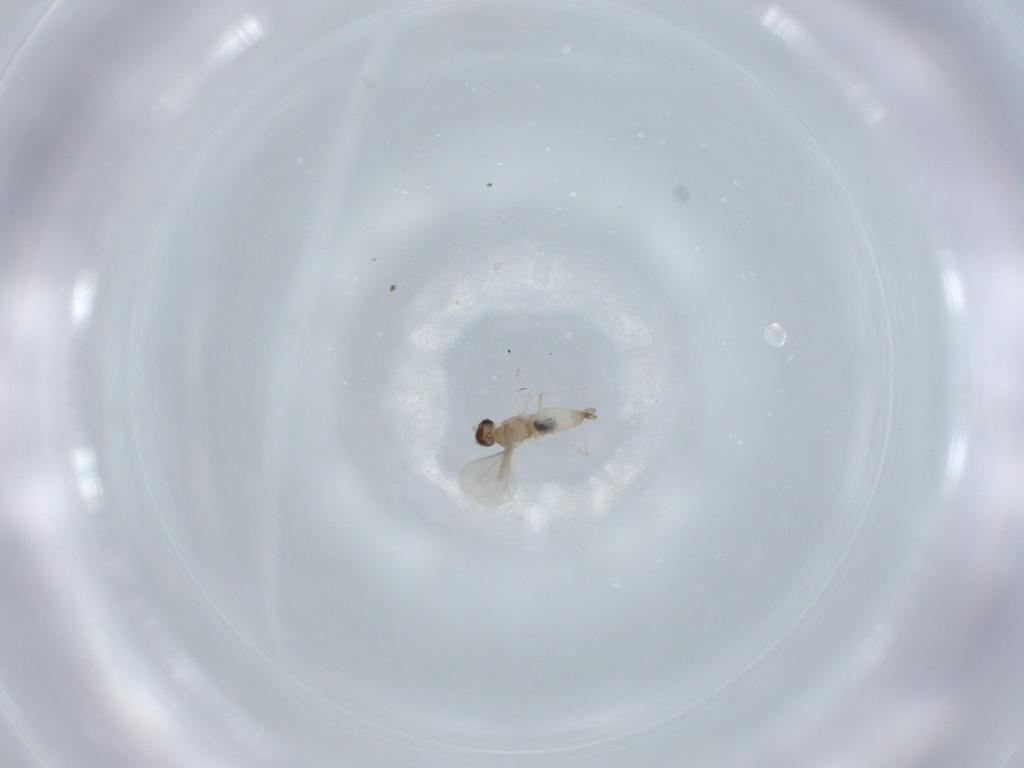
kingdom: Animalia
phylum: Arthropoda
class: Insecta
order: Diptera
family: Cecidomyiidae
